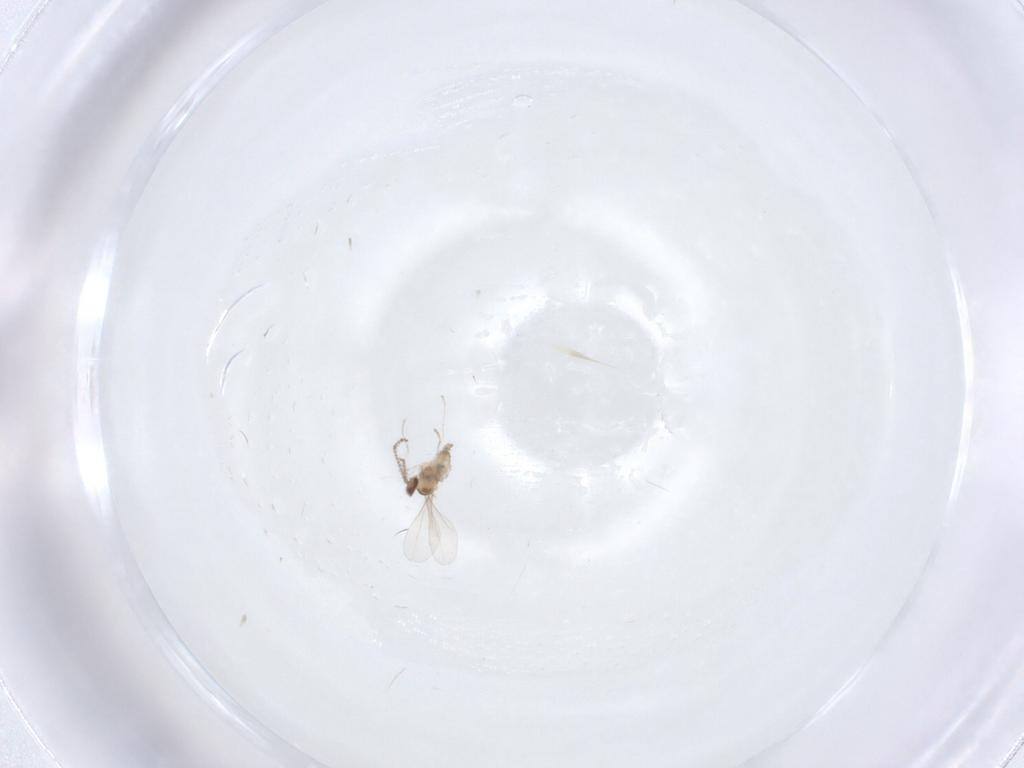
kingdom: Animalia
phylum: Arthropoda
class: Insecta
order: Diptera
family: Cecidomyiidae
